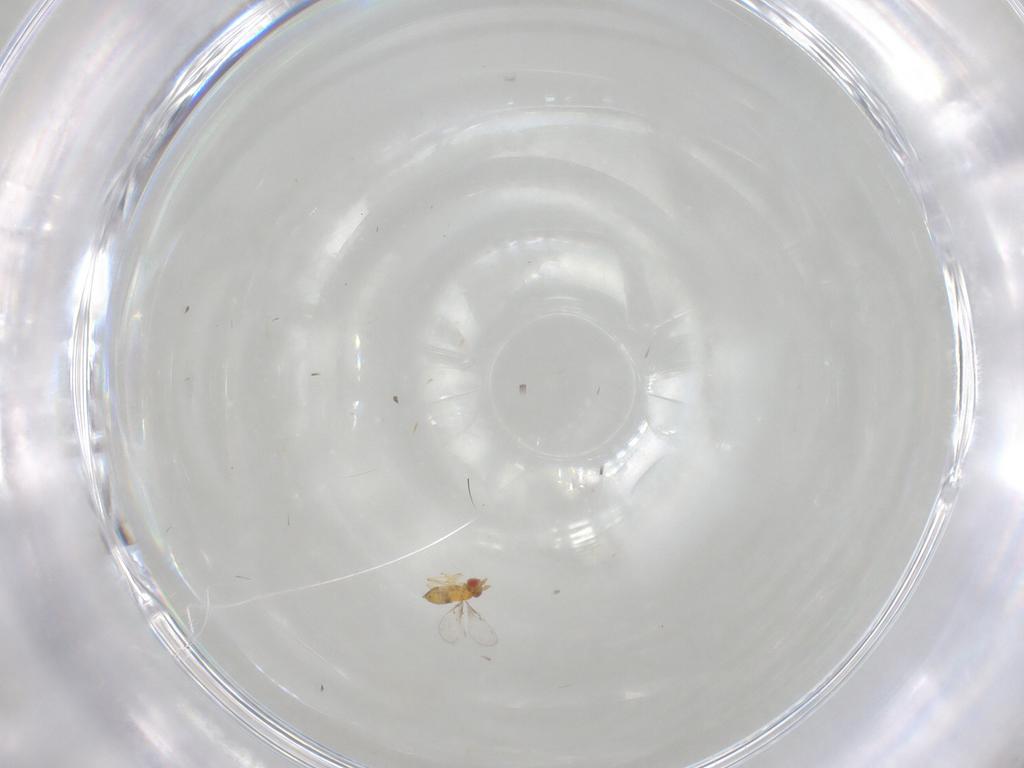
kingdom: Animalia
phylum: Arthropoda
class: Insecta
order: Hymenoptera
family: Trichogrammatidae
